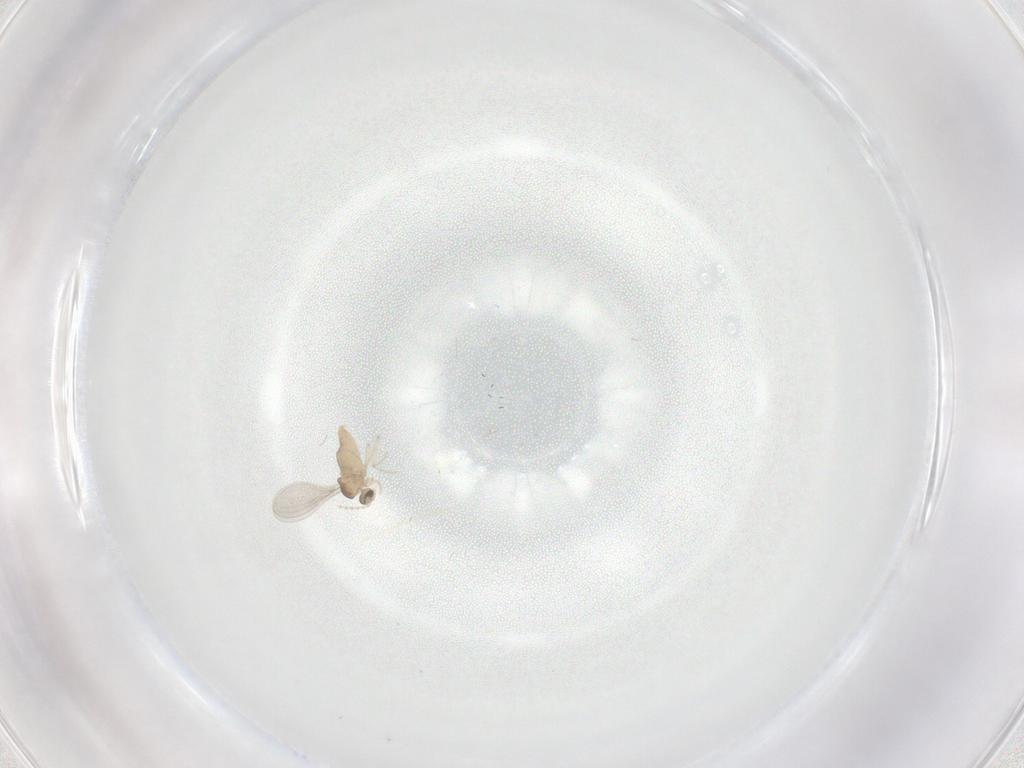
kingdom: Animalia
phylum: Arthropoda
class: Insecta
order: Diptera
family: Cecidomyiidae
